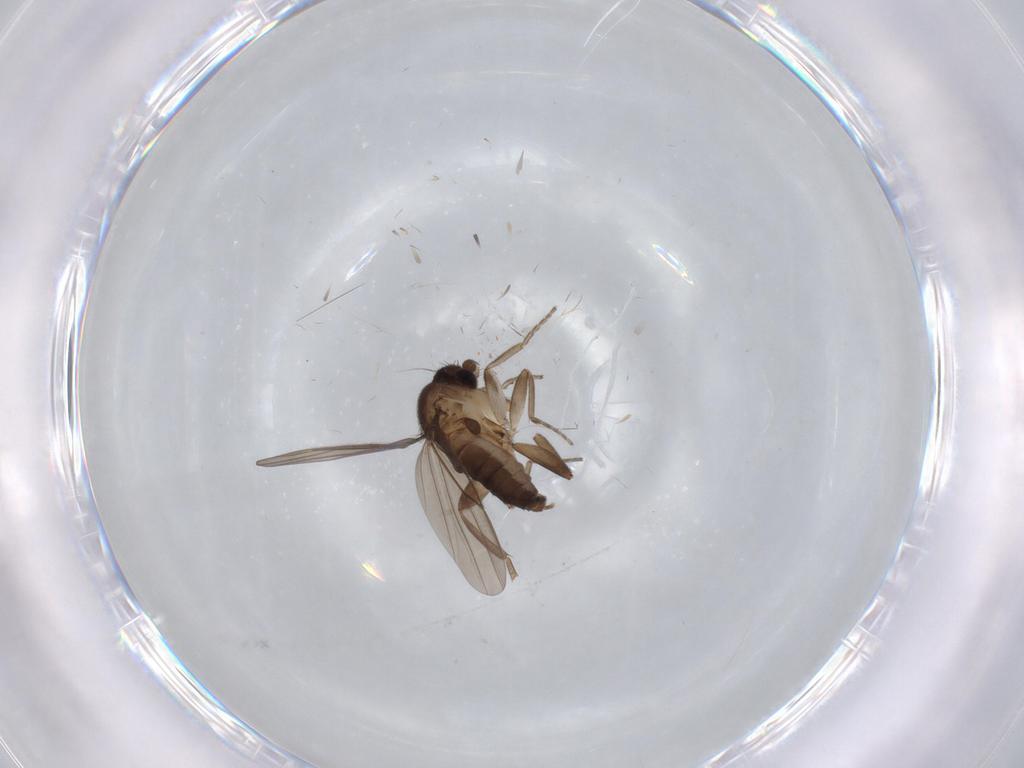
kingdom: Animalia
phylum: Arthropoda
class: Insecta
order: Diptera
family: Phoridae
